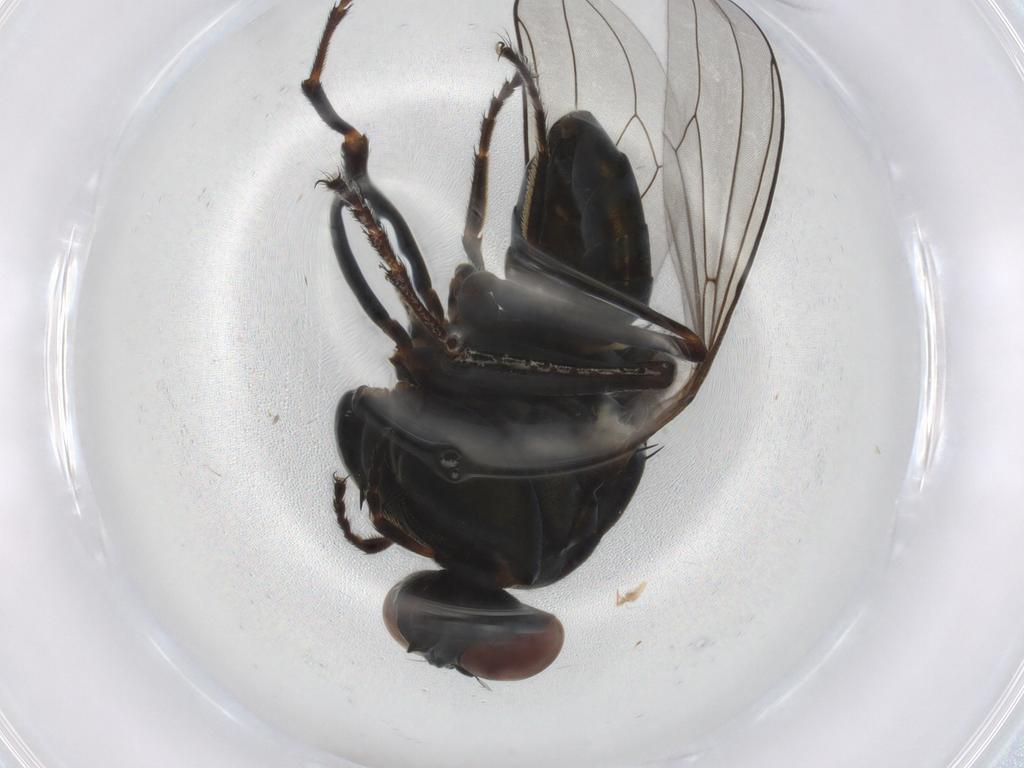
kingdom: Animalia
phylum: Arthropoda
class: Insecta
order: Diptera
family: Ephydridae
